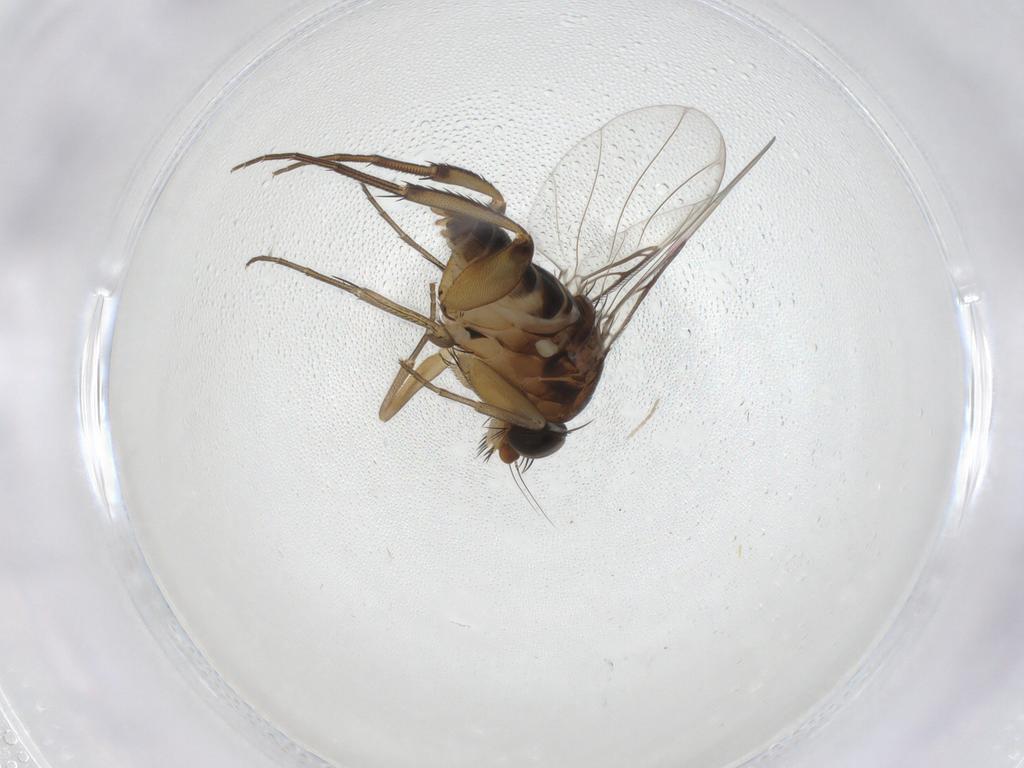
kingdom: Animalia
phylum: Arthropoda
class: Insecta
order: Diptera
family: Phoridae
